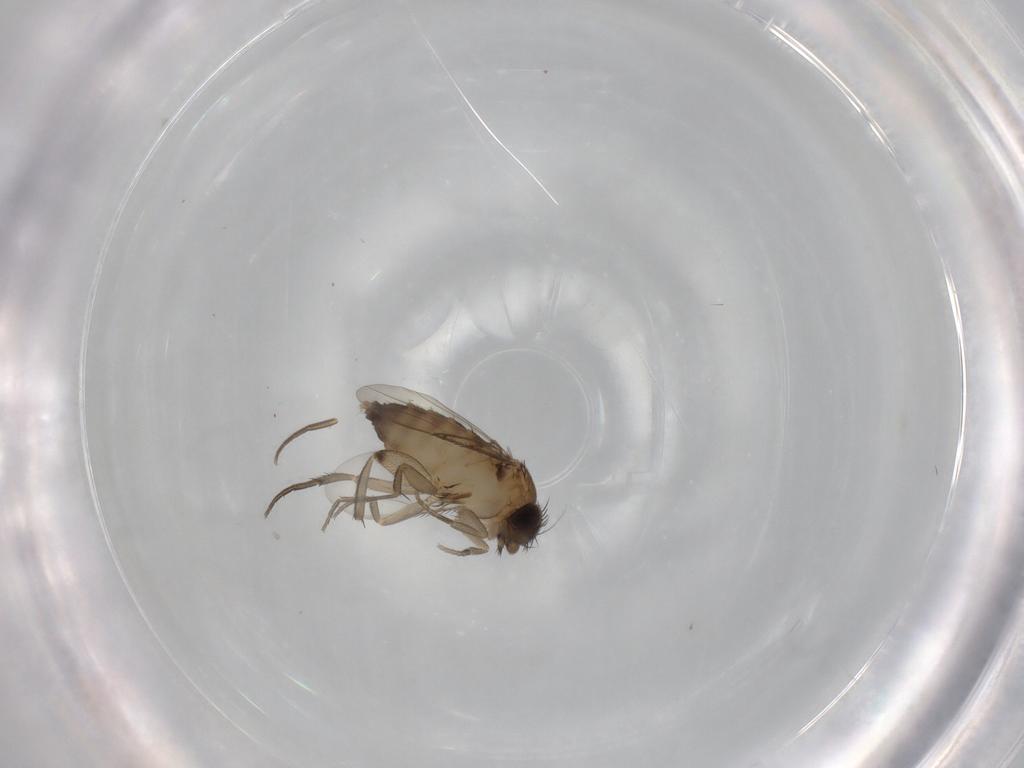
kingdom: Animalia
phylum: Arthropoda
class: Insecta
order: Diptera
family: Phoridae
